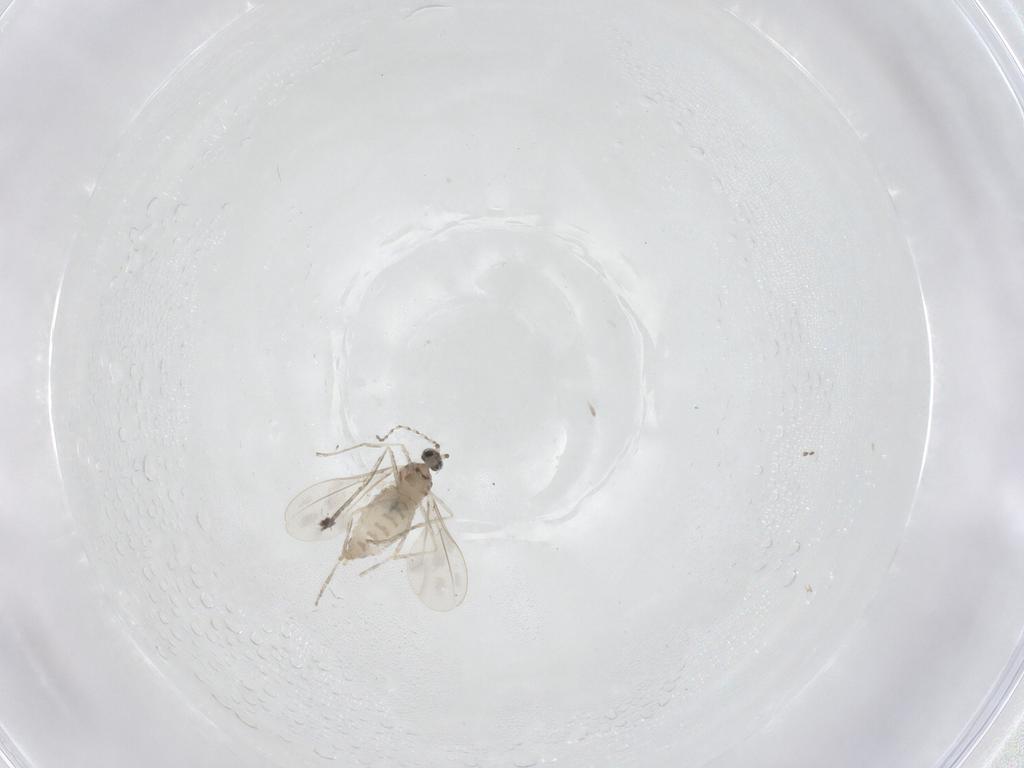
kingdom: Animalia
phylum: Arthropoda
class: Insecta
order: Diptera
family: Cecidomyiidae
